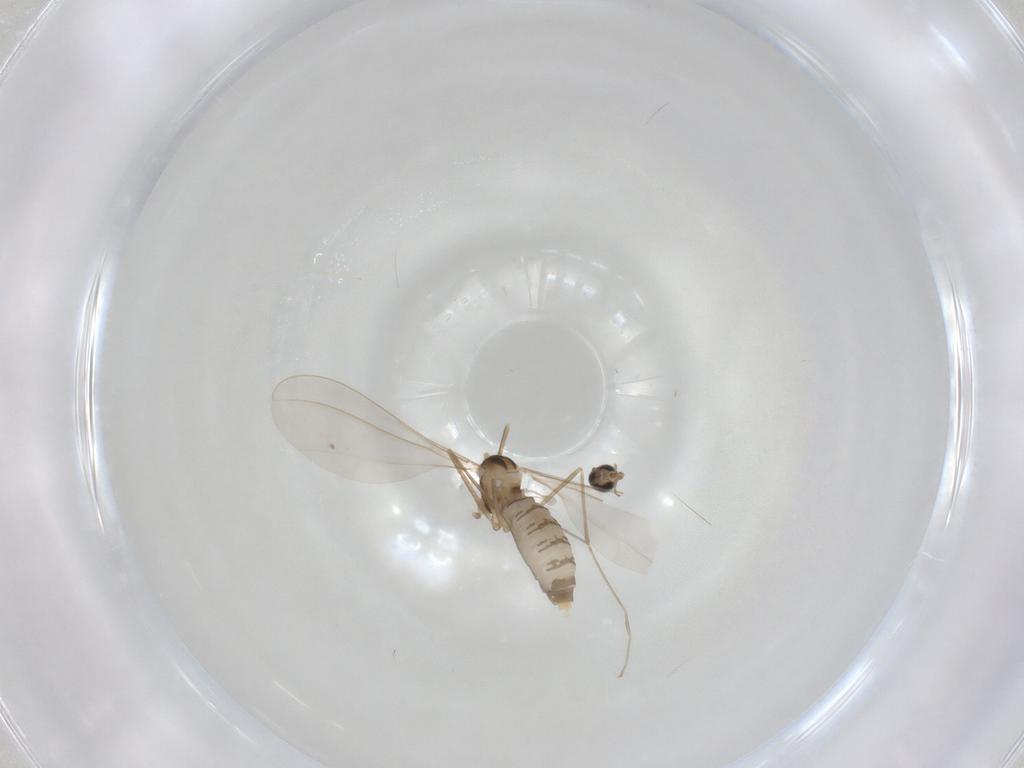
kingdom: Animalia
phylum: Arthropoda
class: Insecta
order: Diptera
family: Cecidomyiidae
